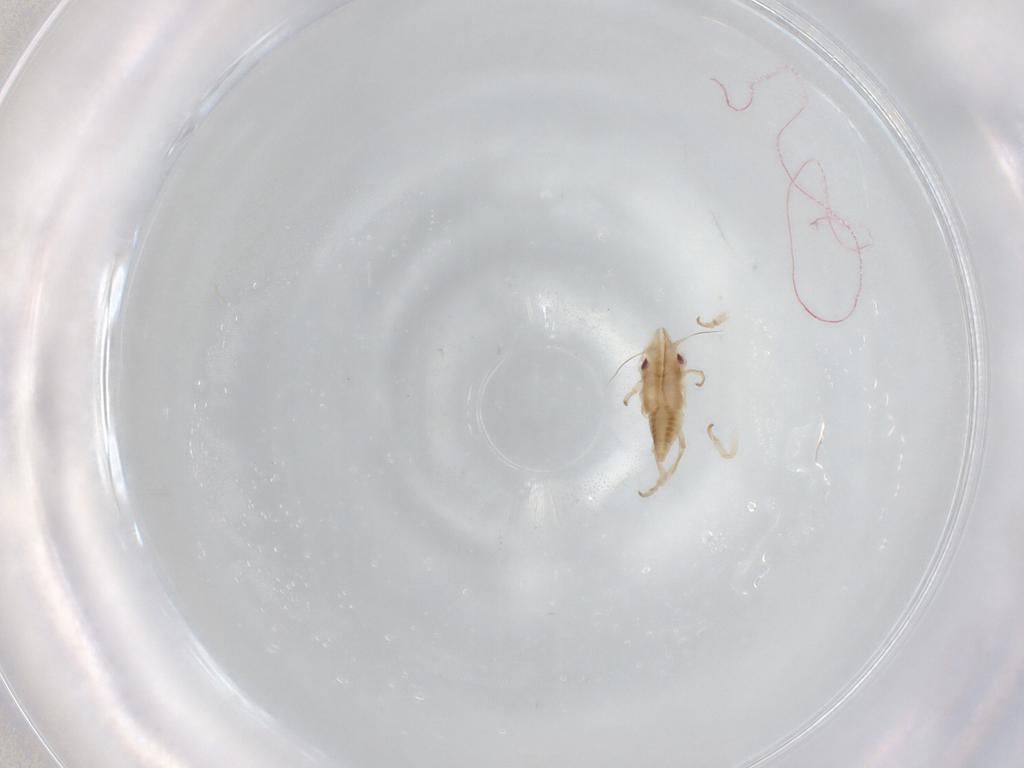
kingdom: Animalia
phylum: Arthropoda
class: Insecta
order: Hemiptera
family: Cicadellidae
